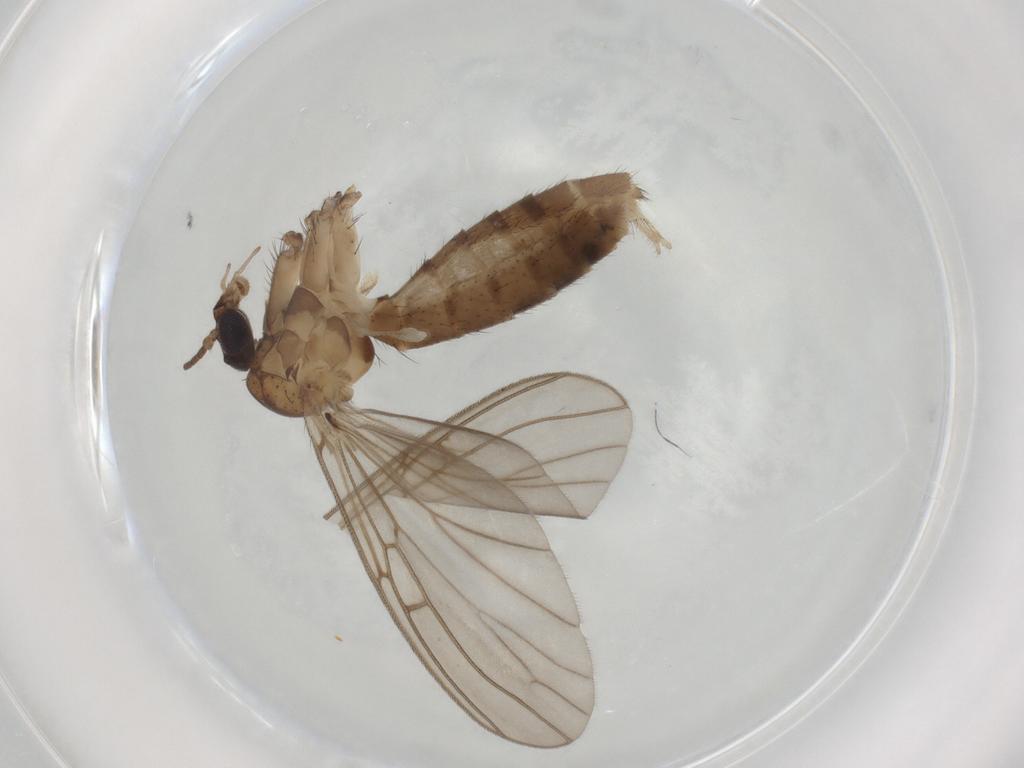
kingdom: Animalia
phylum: Arthropoda
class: Insecta
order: Diptera
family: Mycetophilidae
